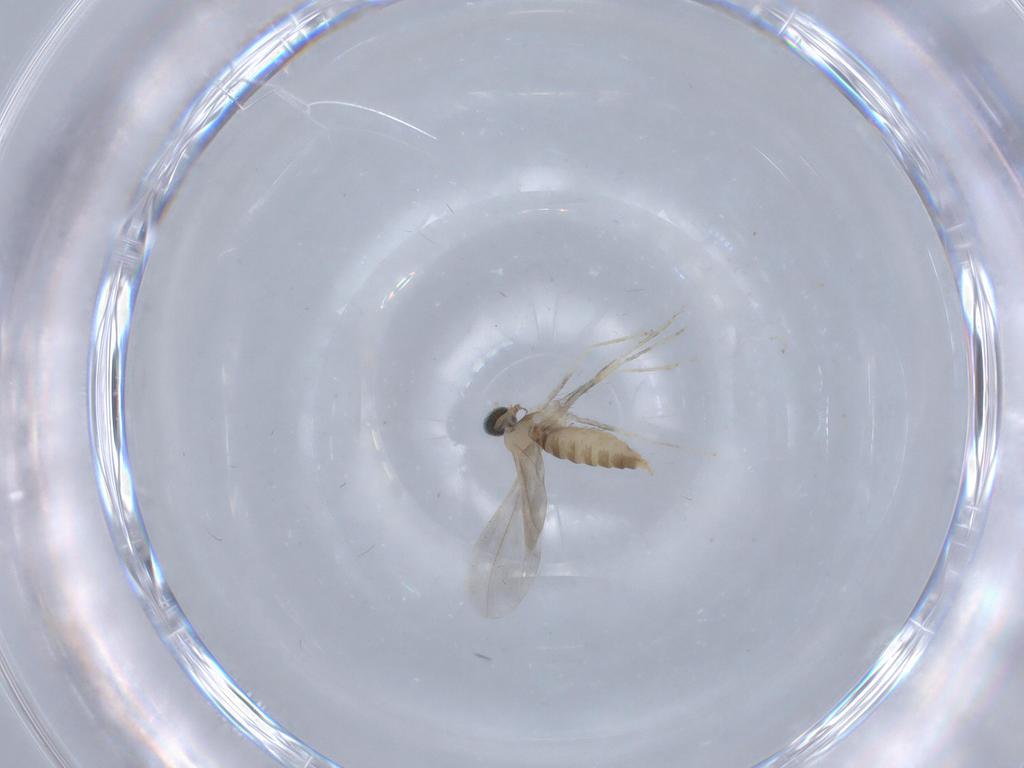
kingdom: Animalia
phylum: Arthropoda
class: Insecta
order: Diptera
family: Cecidomyiidae
